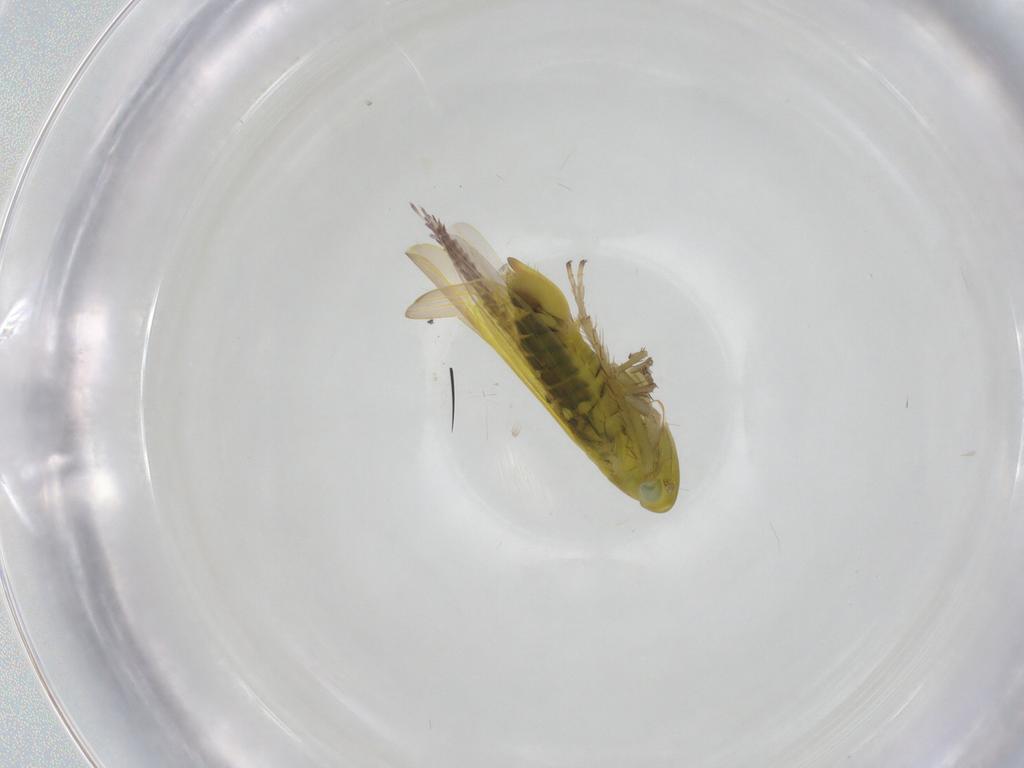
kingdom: Animalia
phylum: Arthropoda
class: Insecta
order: Hemiptera
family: Cicadellidae
